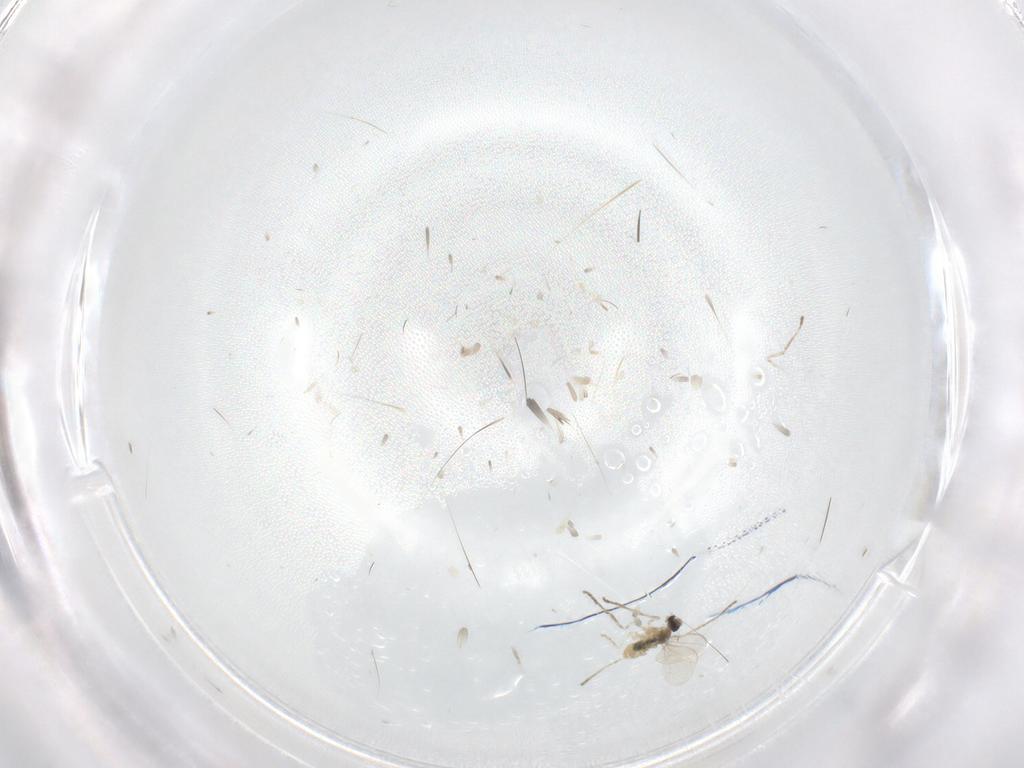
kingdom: Animalia
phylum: Arthropoda
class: Insecta
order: Diptera
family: Cecidomyiidae
